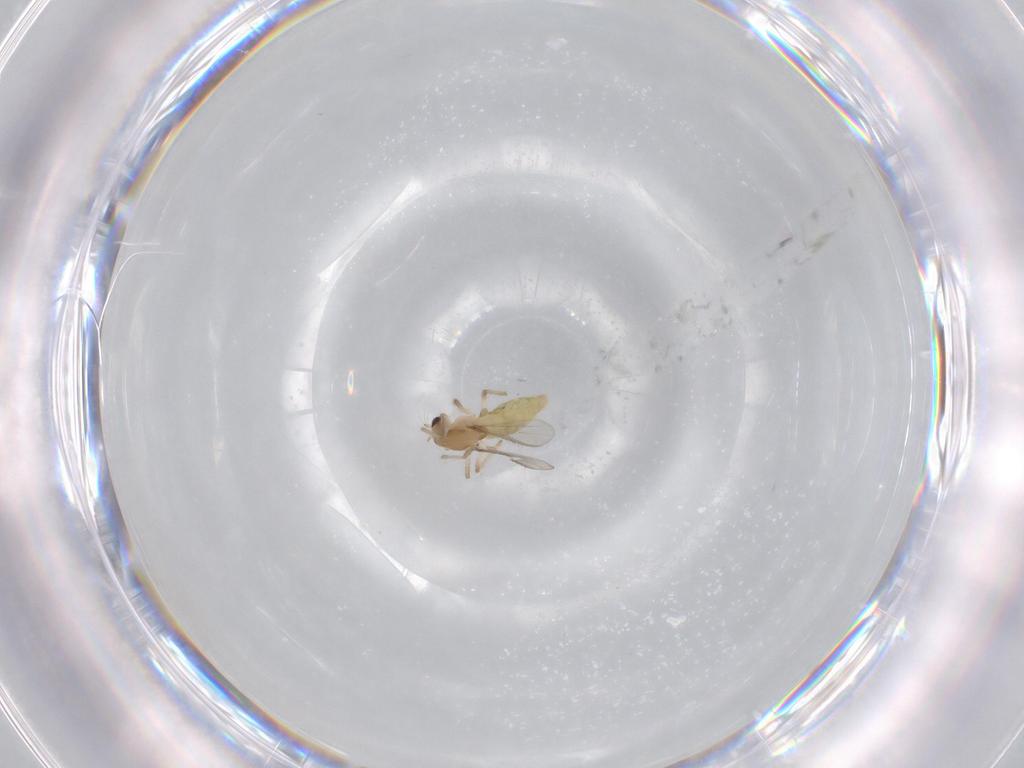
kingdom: Animalia
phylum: Arthropoda
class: Insecta
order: Diptera
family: Chironomidae
